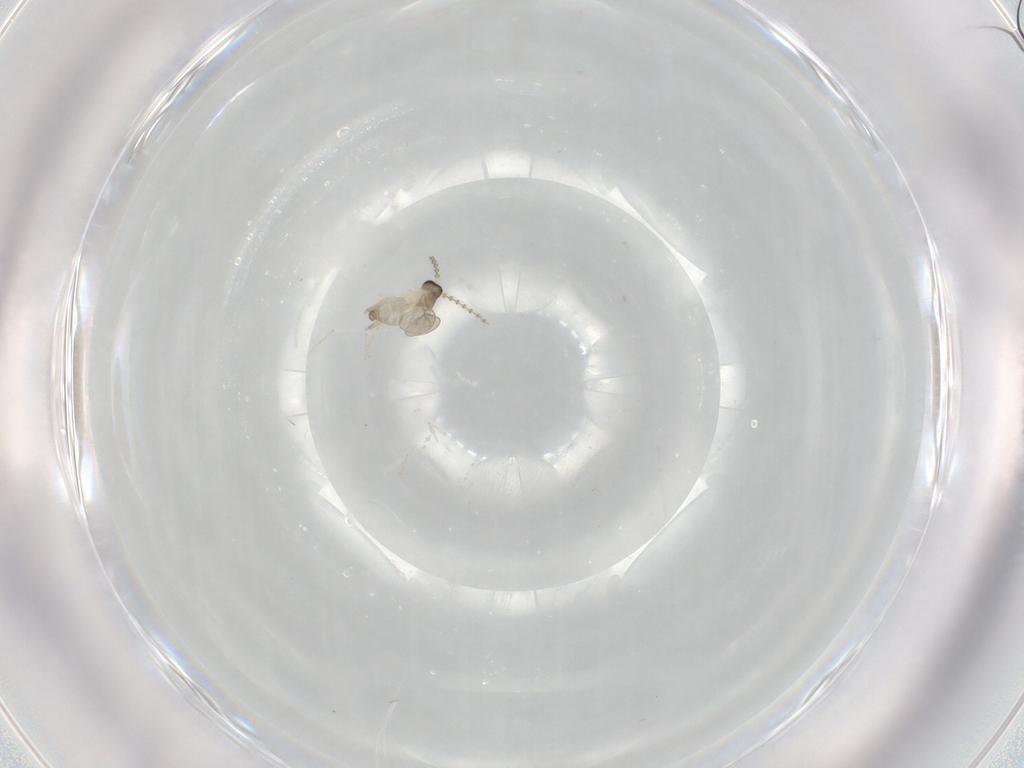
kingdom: Animalia
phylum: Arthropoda
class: Insecta
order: Diptera
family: Cecidomyiidae
